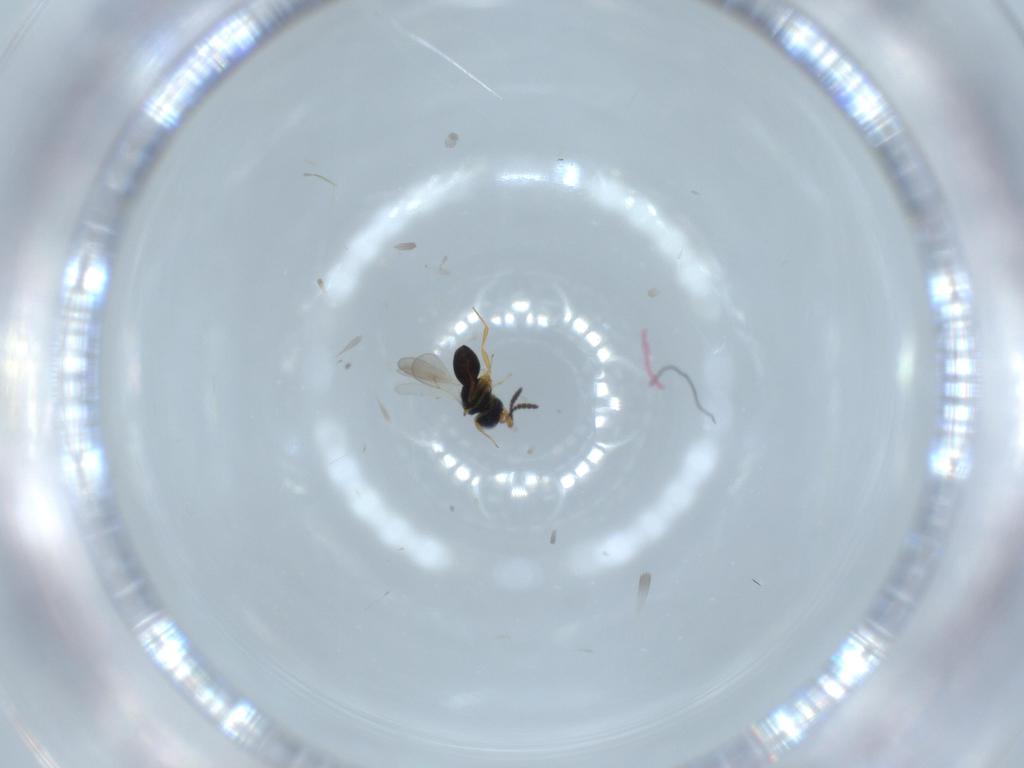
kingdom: Animalia
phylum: Arthropoda
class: Insecta
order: Hymenoptera
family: Scelionidae
